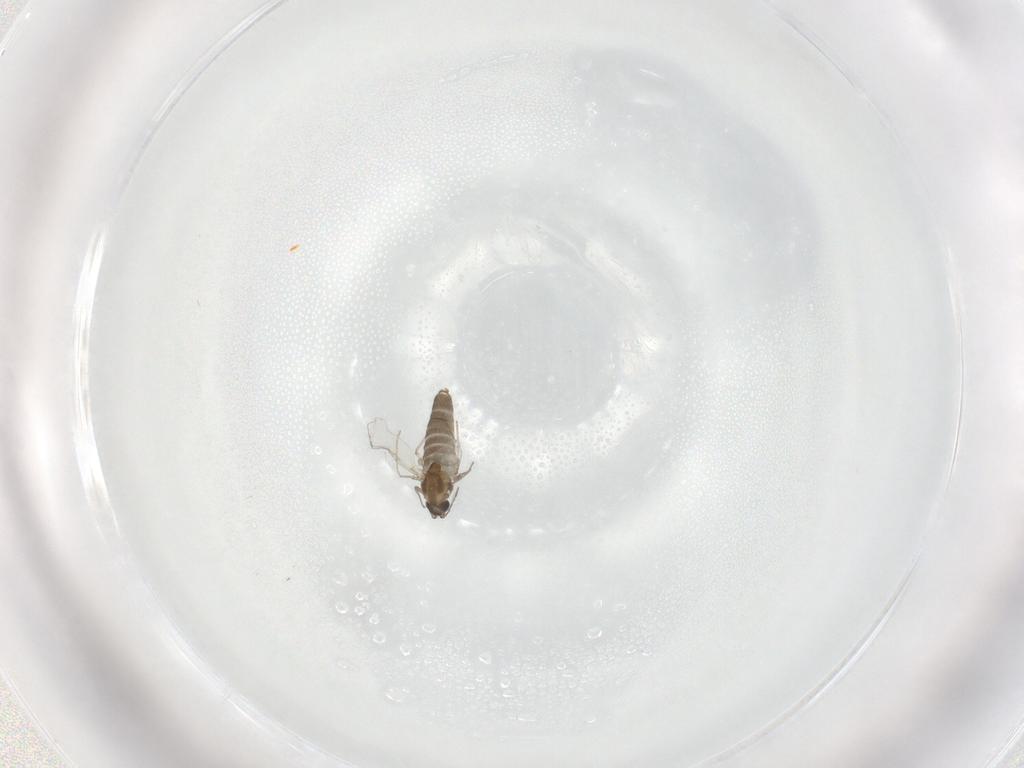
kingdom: Animalia
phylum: Arthropoda
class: Insecta
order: Diptera
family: Chironomidae
